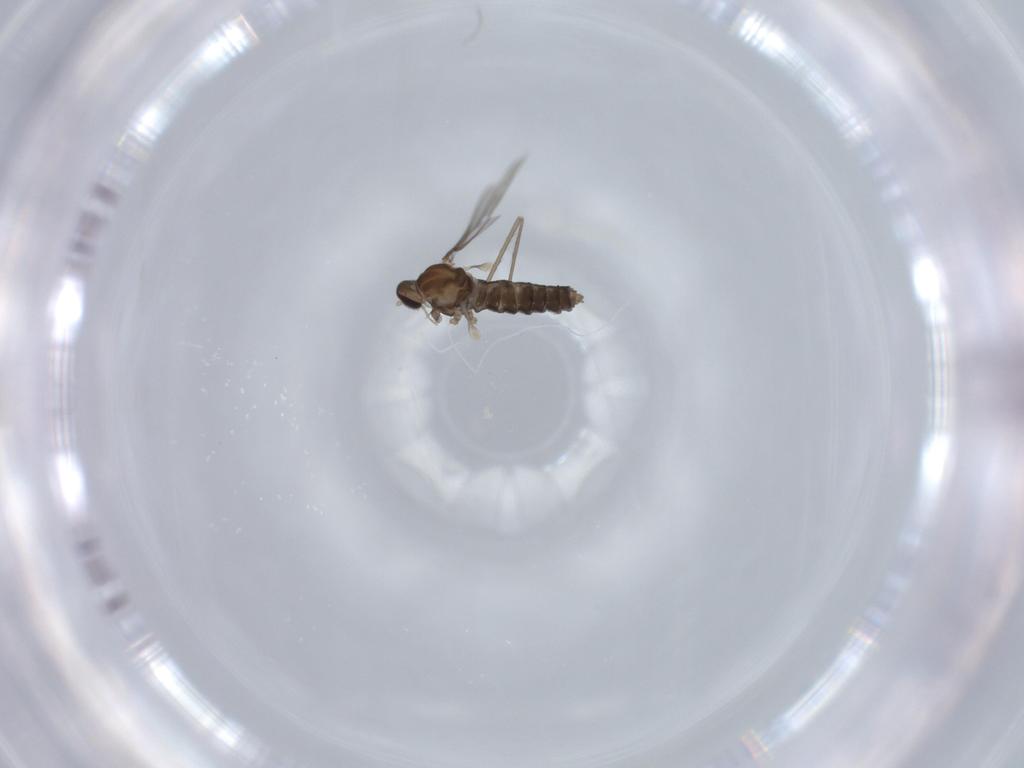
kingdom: Animalia
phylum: Arthropoda
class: Insecta
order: Diptera
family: Cecidomyiidae
